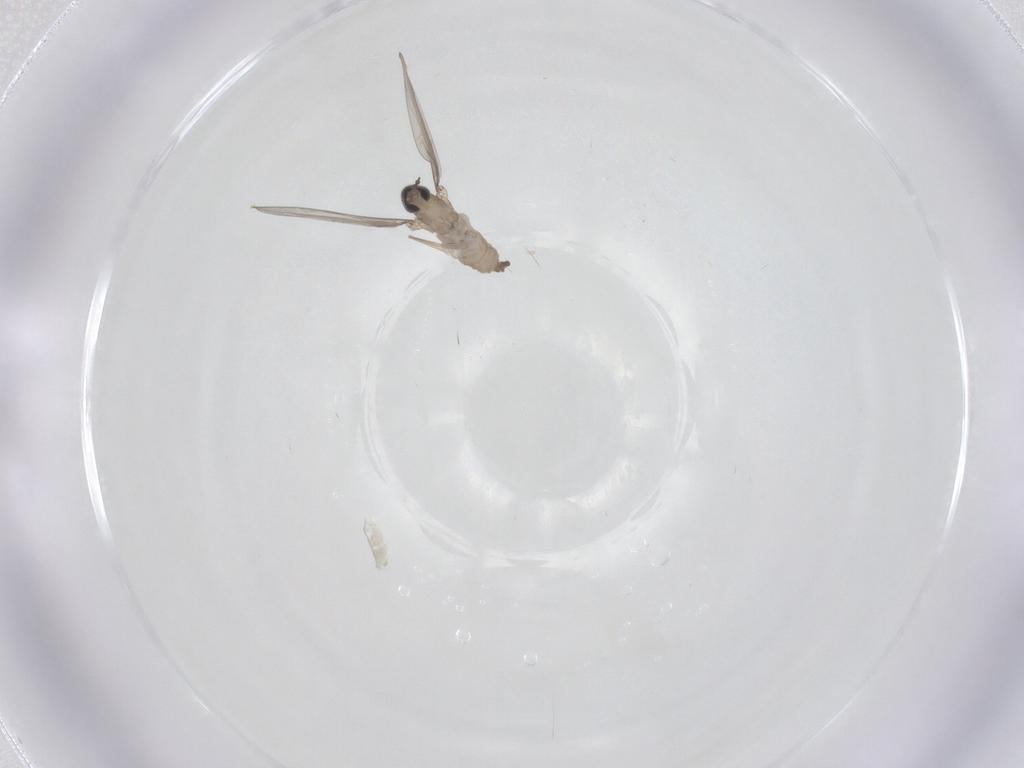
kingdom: Animalia
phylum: Arthropoda
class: Insecta
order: Diptera
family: Cecidomyiidae
